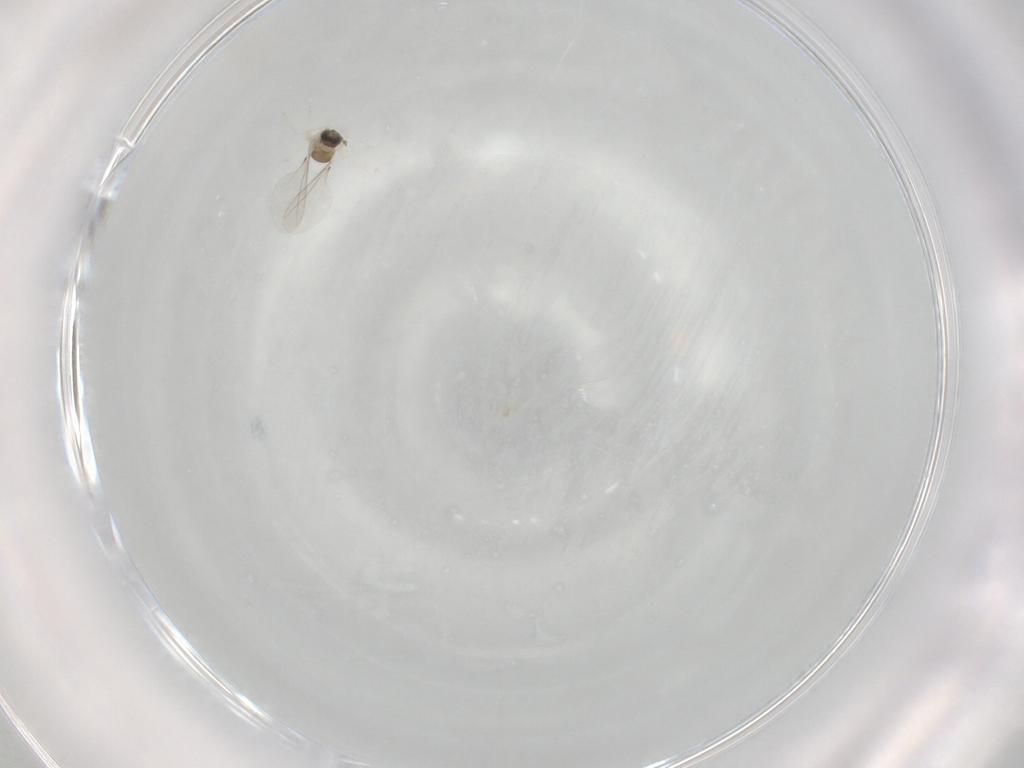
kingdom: Animalia
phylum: Arthropoda
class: Insecta
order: Diptera
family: Cecidomyiidae
